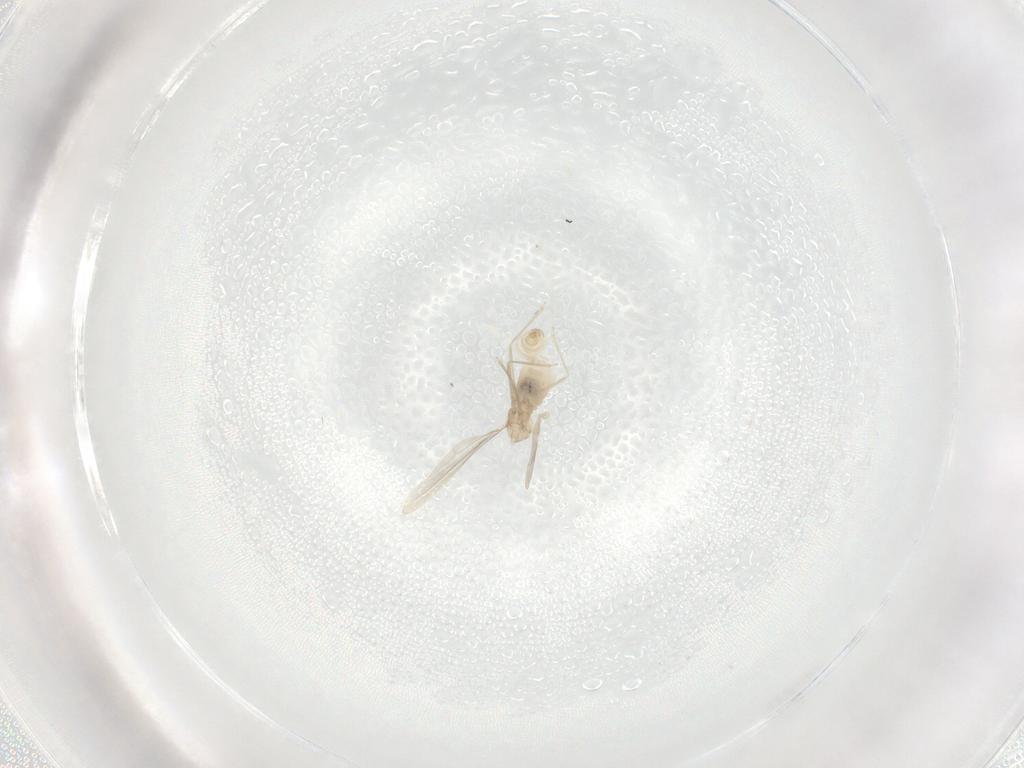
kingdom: Animalia
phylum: Arthropoda
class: Insecta
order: Diptera
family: Cecidomyiidae
